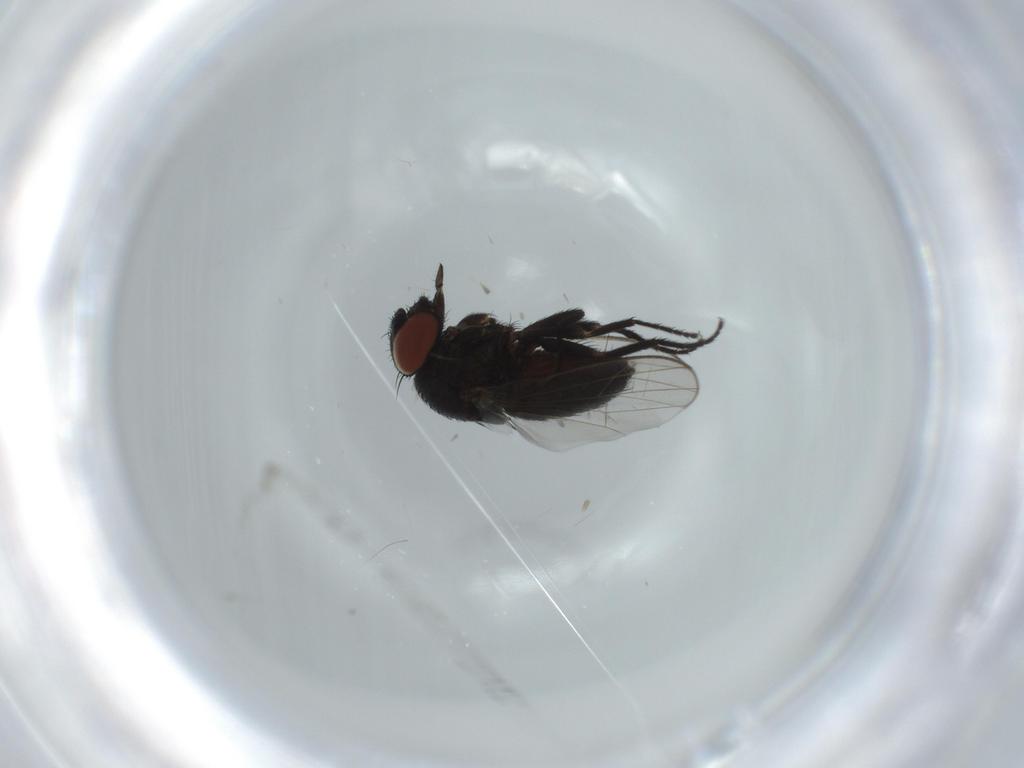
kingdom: Animalia
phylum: Arthropoda
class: Insecta
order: Diptera
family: Milichiidae
